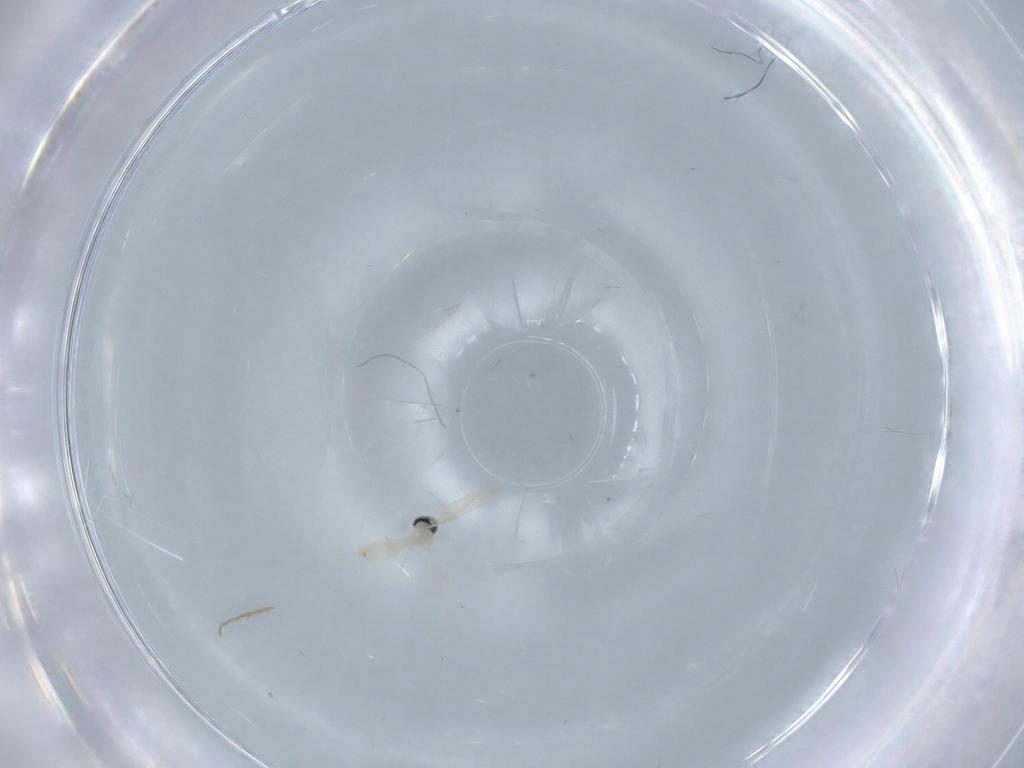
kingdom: Animalia
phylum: Arthropoda
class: Insecta
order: Diptera
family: Cecidomyiidae
